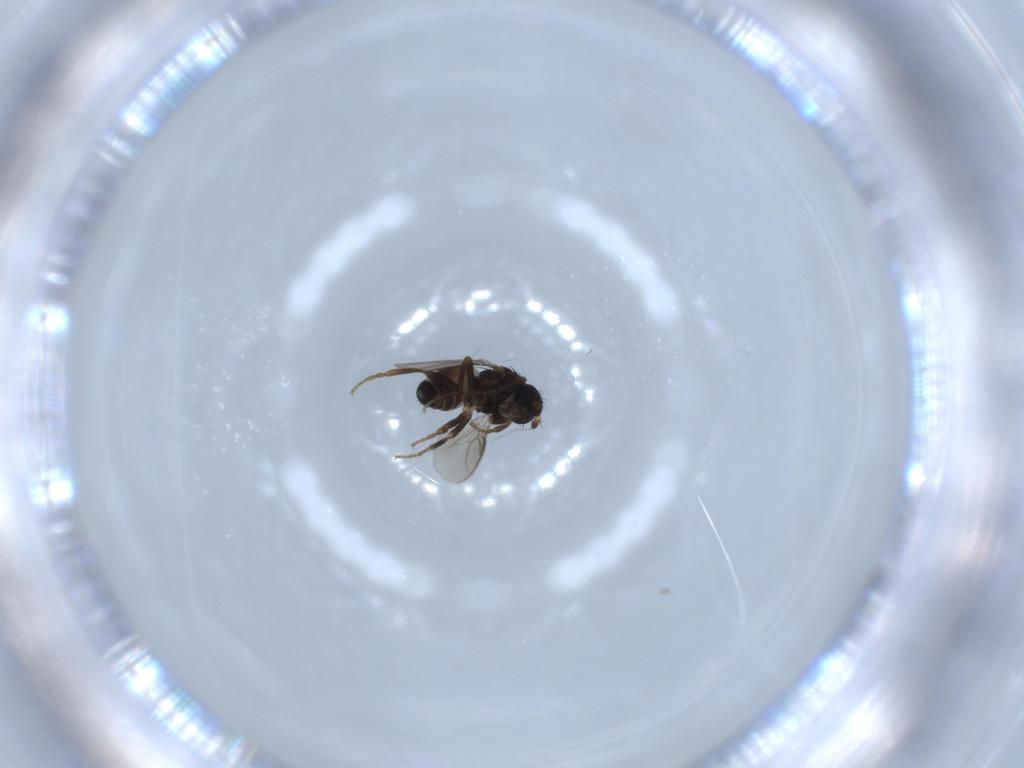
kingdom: Animalia
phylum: Arthropoda
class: Insecta
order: Diptera
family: Sphaeroceridae
